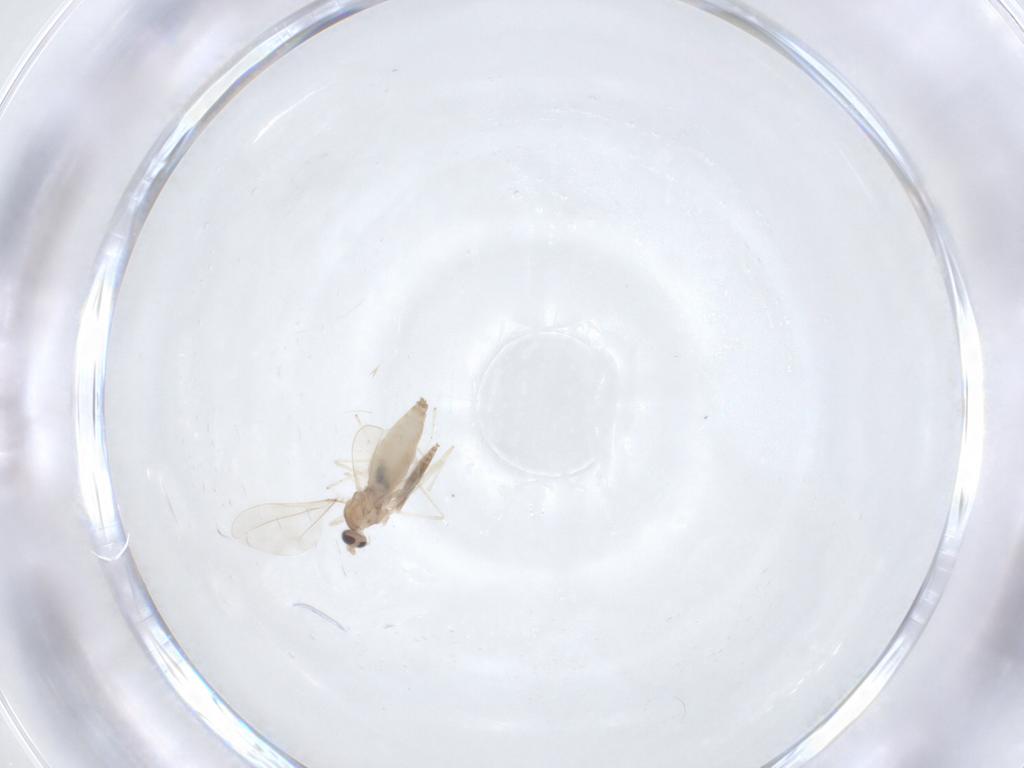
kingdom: Animalia
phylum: Arthropoda
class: Insecta
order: Diptera
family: Cecidomyiidae
